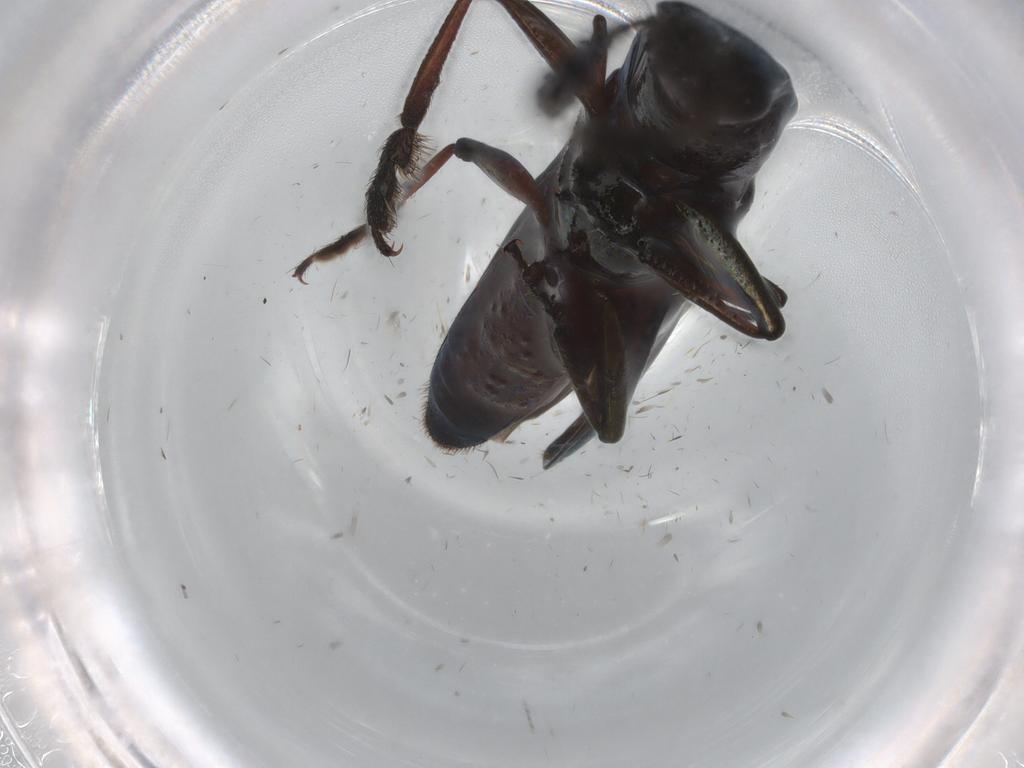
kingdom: Animalia
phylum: Arthropoda
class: Insecta
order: Coleoptera
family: Erotylidae
